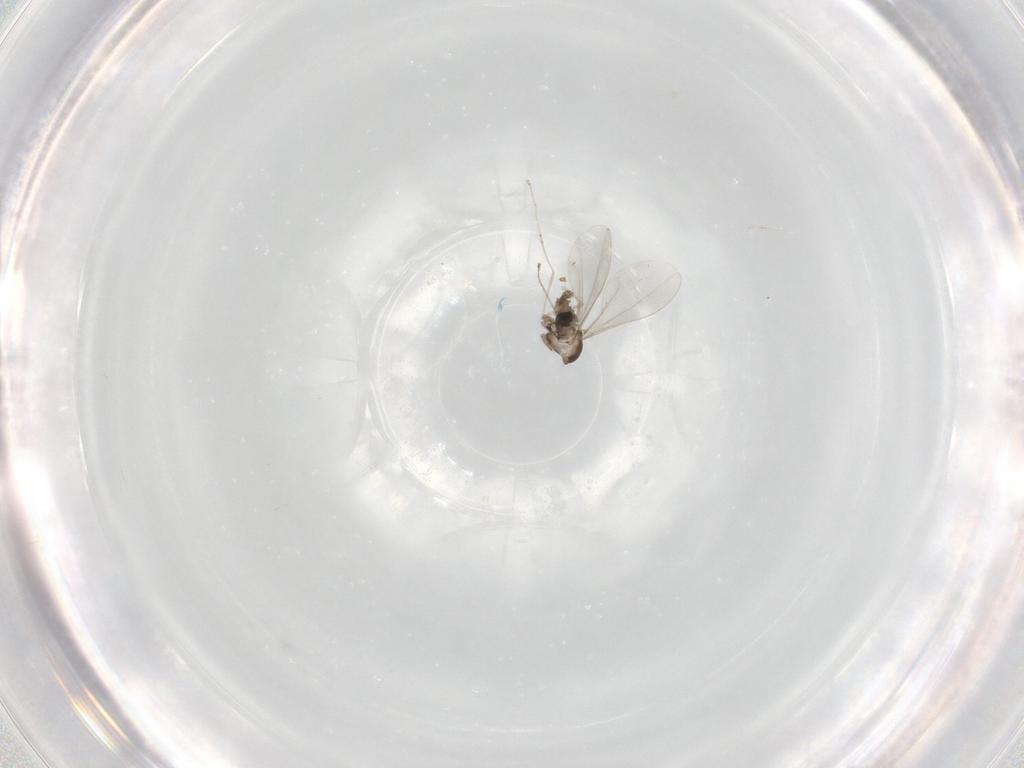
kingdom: Animalia
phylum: Arthropoda
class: Insecta
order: Diptera
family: Cecidomyiidae
